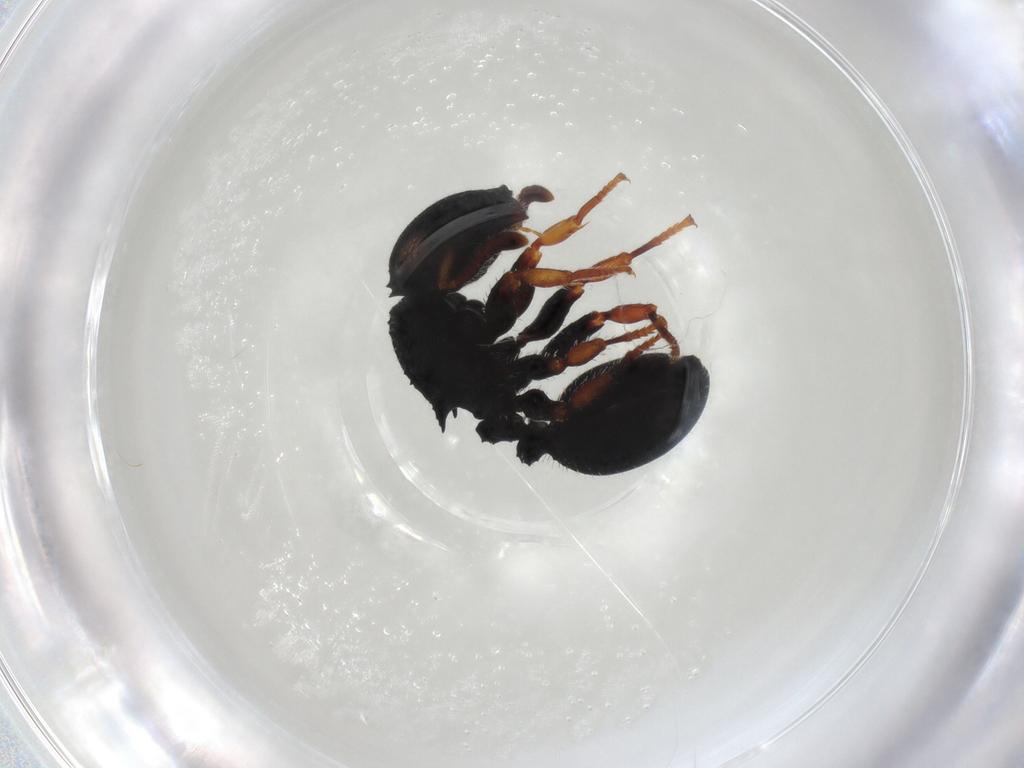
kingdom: Animalia
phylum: Arthropoda
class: Insecta
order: Hymenoptera
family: Formicidae
